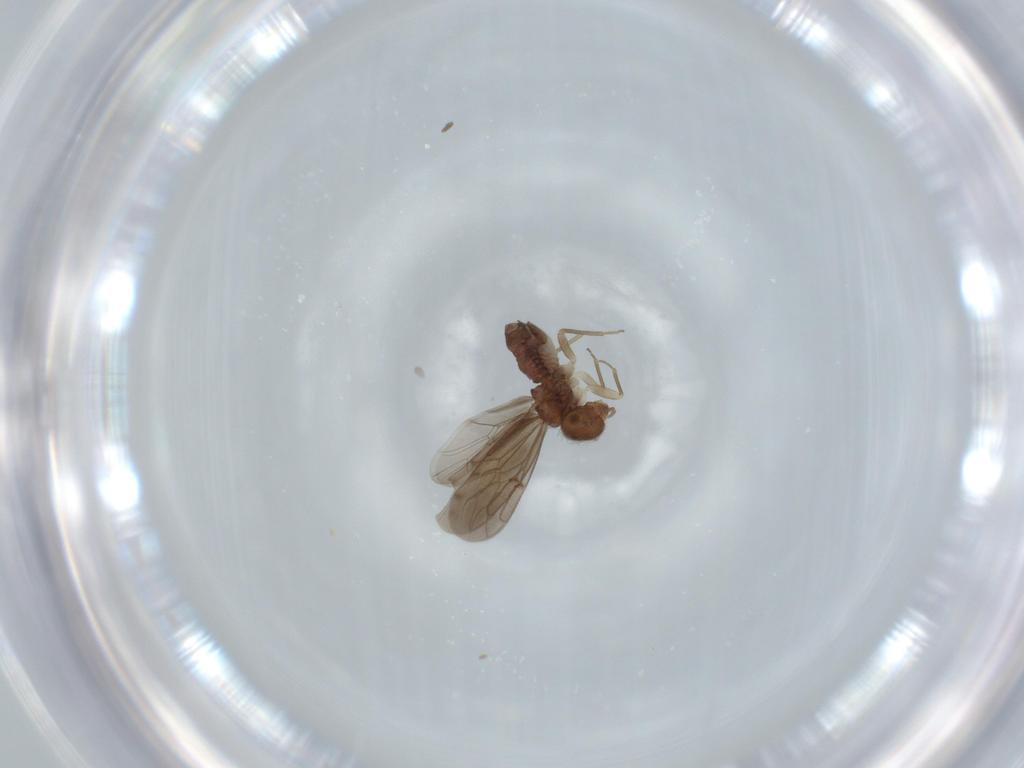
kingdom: Animalia
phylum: Arthropoda
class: Insecta
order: Psocodea
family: Ectopsocidae
